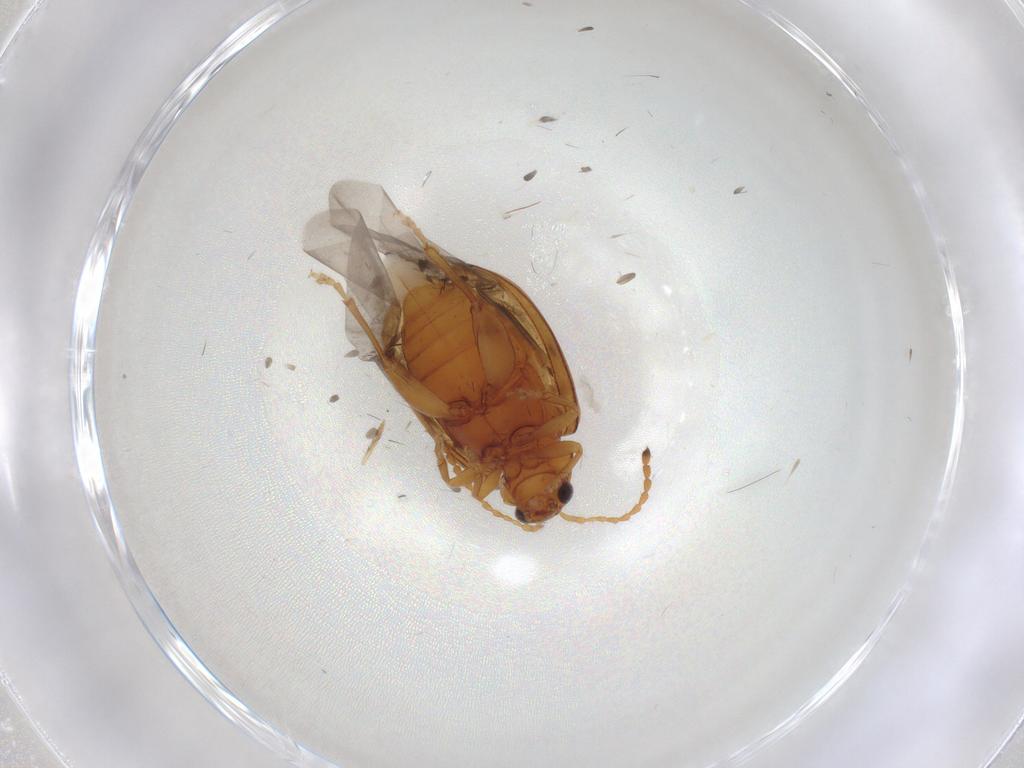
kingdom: Animalia
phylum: Arthropoda
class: Insecta
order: Coleoptera
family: Chrysomelidae
